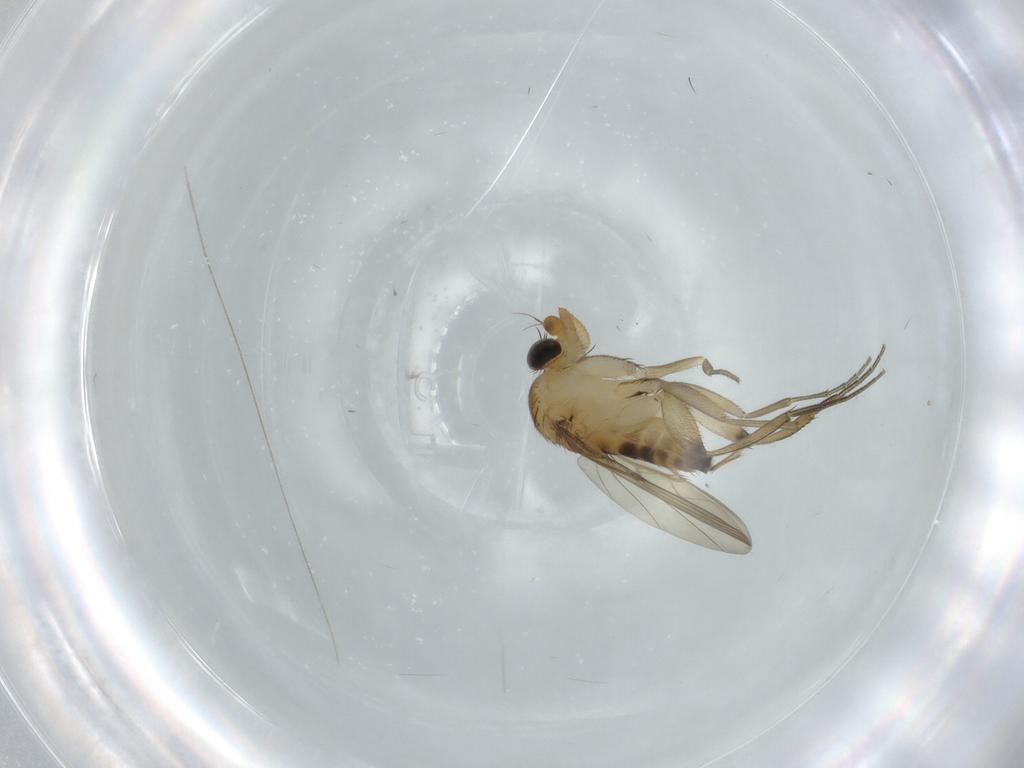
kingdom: Animalia
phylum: Arthropoda
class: Insecta
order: Diptera
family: Phoridae
